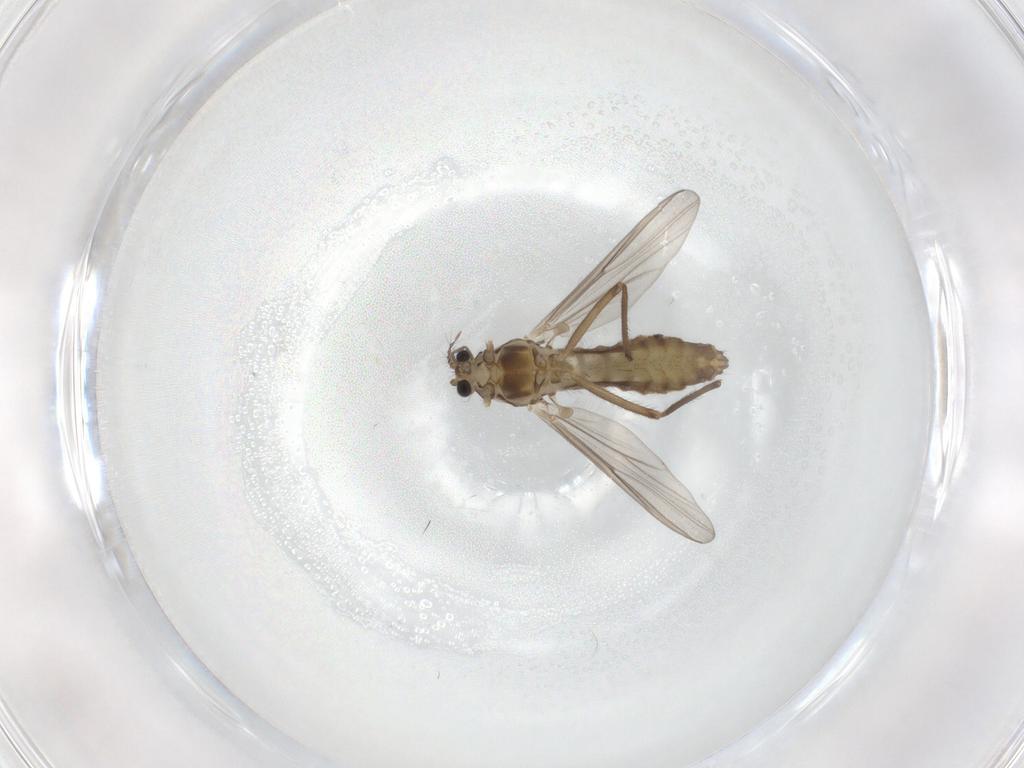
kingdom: Animalia
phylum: Arthropoda
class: Insecta
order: Diptera
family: Chironomidae
